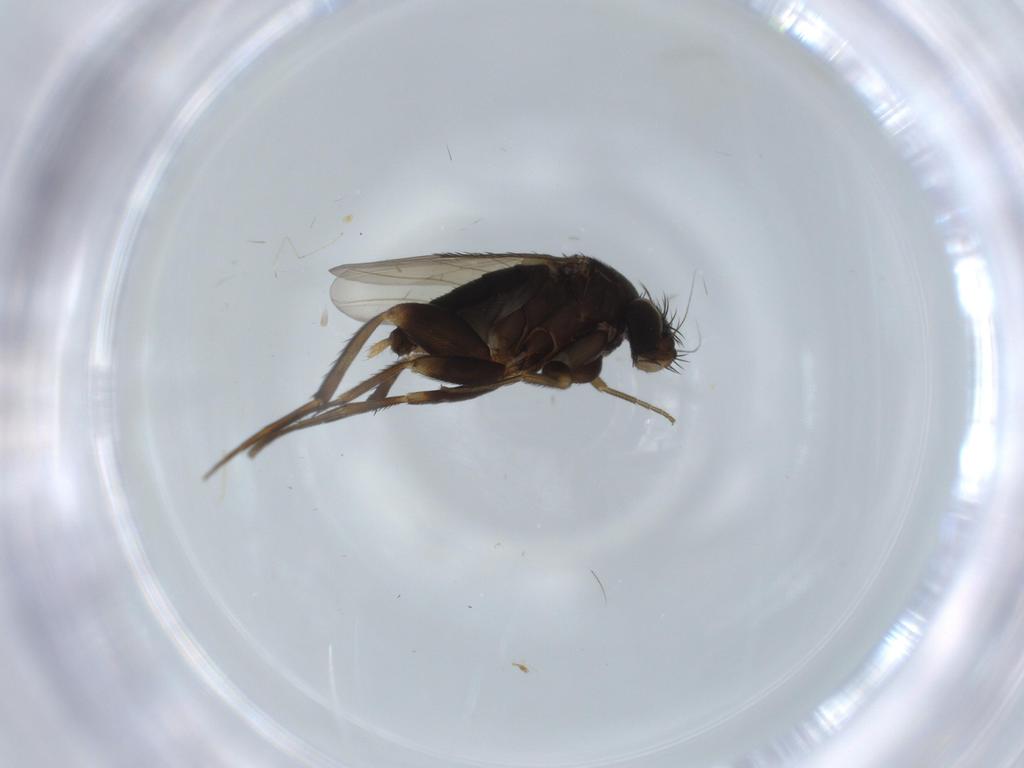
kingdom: Animalia
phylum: Arthropoda
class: Insecta
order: Diptera
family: Phoridae
